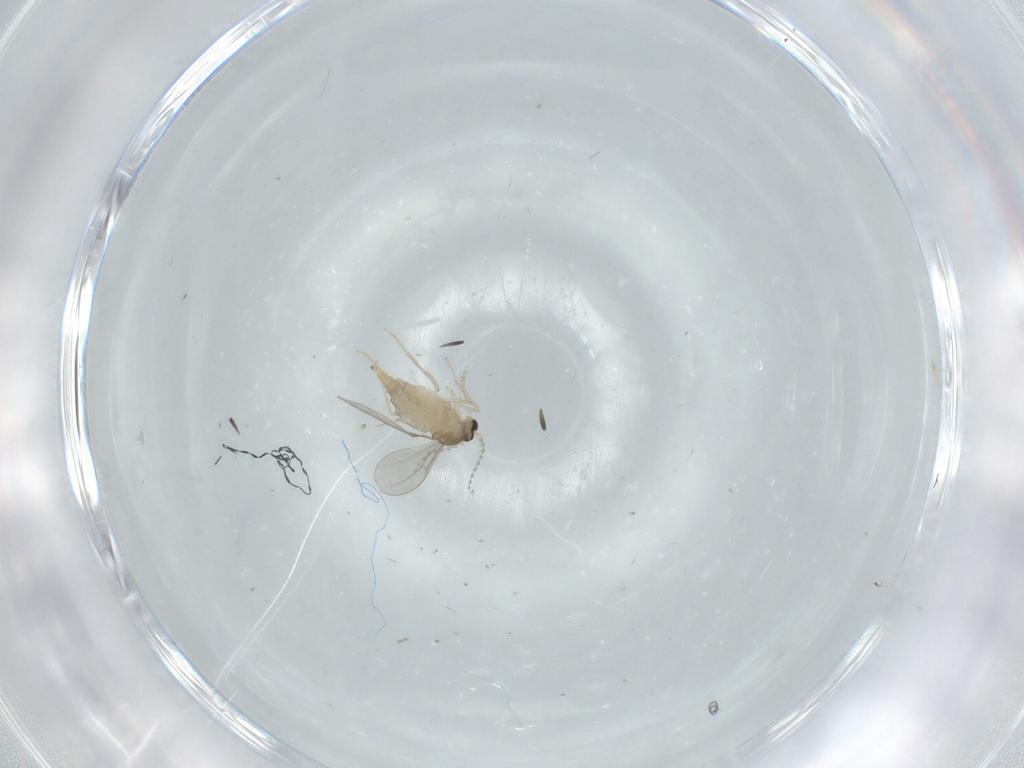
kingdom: Animalia
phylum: Arthropoda
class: Insecta
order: Diptera
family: Cecidomyiidae
